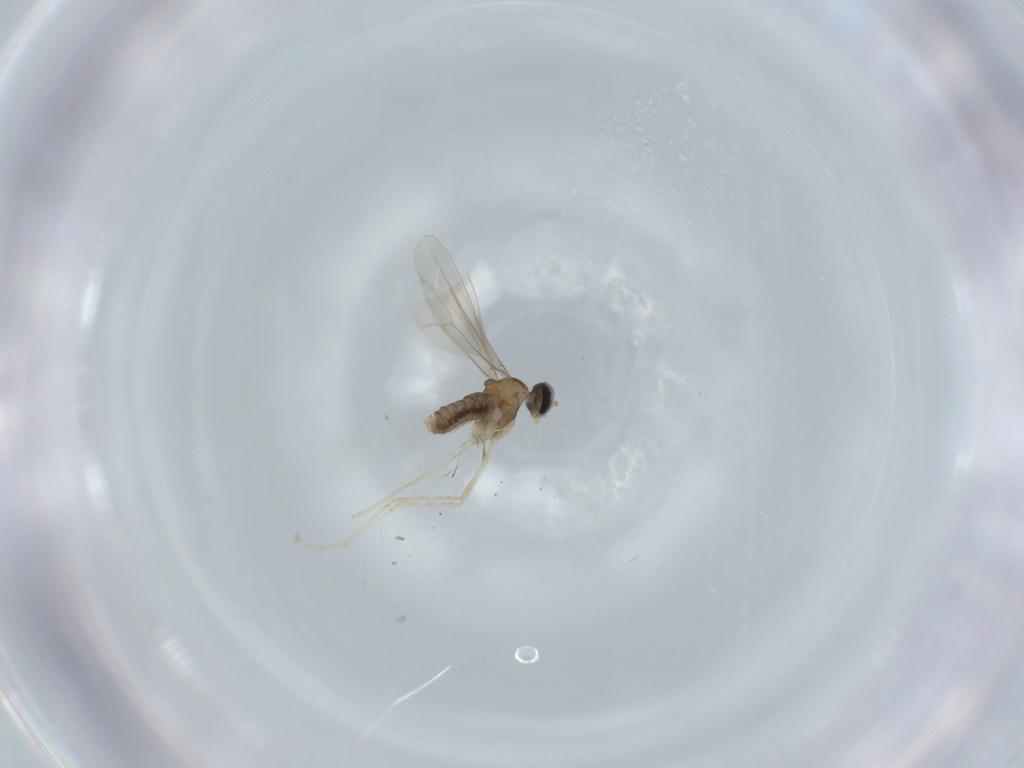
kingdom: Animalia
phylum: Arthropoda
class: Insecta
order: Diptera
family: Cecidomyiidae
